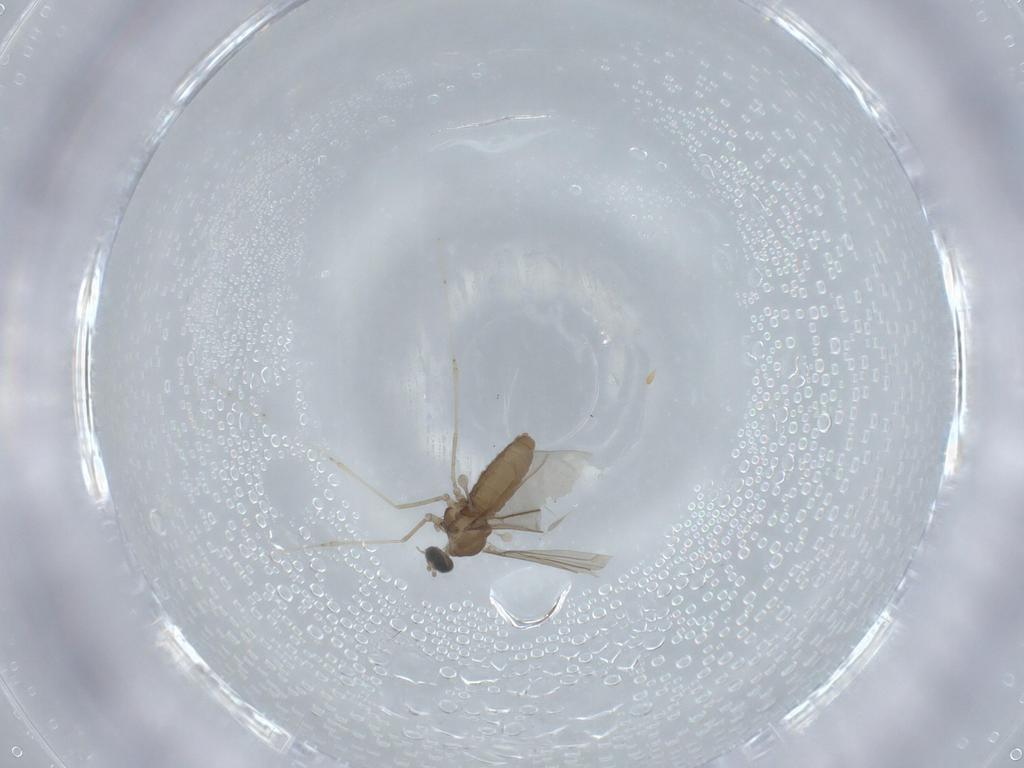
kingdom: Animalia
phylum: Arthropoda
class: Insecta
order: Diptera
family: Cecidomyiidae
